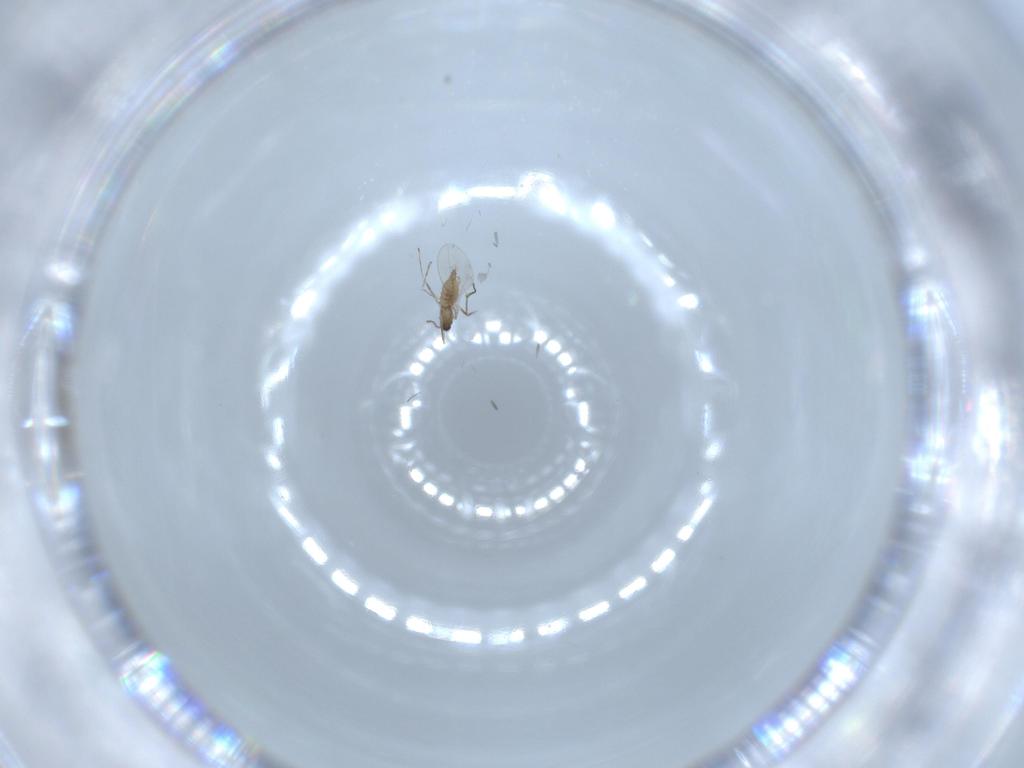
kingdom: Animalia
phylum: Arthropoda
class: Insecta
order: Diptera
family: Cecidomyiidae
